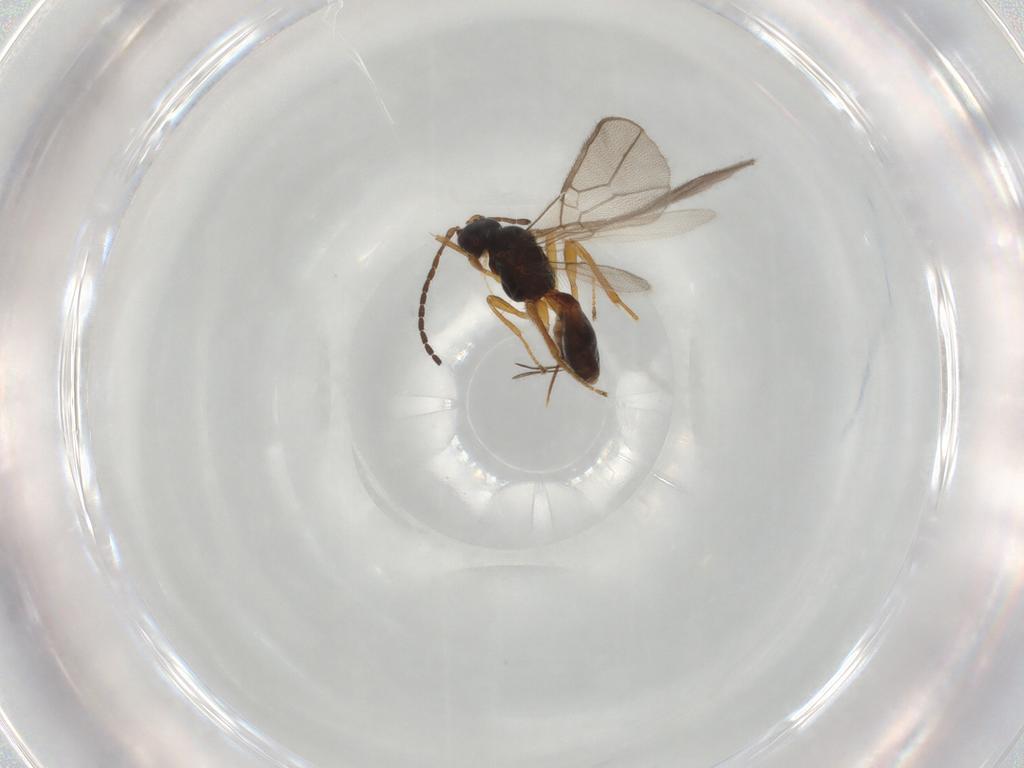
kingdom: Animalia
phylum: Arthropoda
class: Insecta
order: Hymenoptera
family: Braconidae
